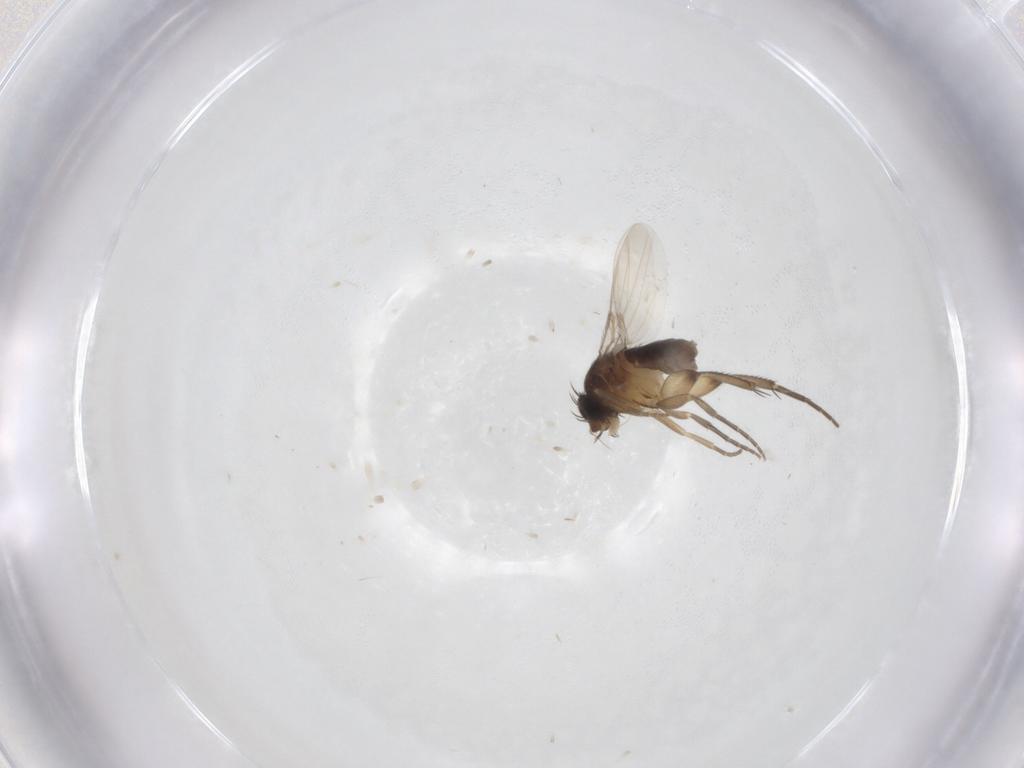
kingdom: Animalia
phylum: Arthropoda
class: Insecta
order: Diptera
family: Phoridae
